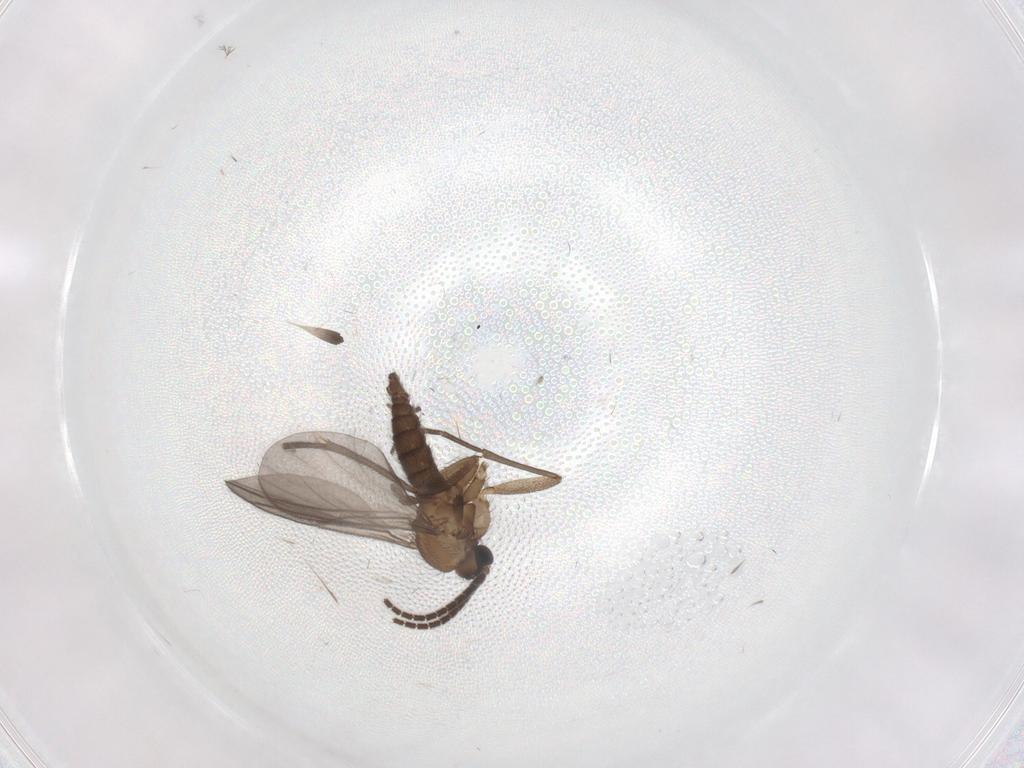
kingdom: Animalia
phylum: Arthropoda
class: Insecta
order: Diptera
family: Sciaridae
